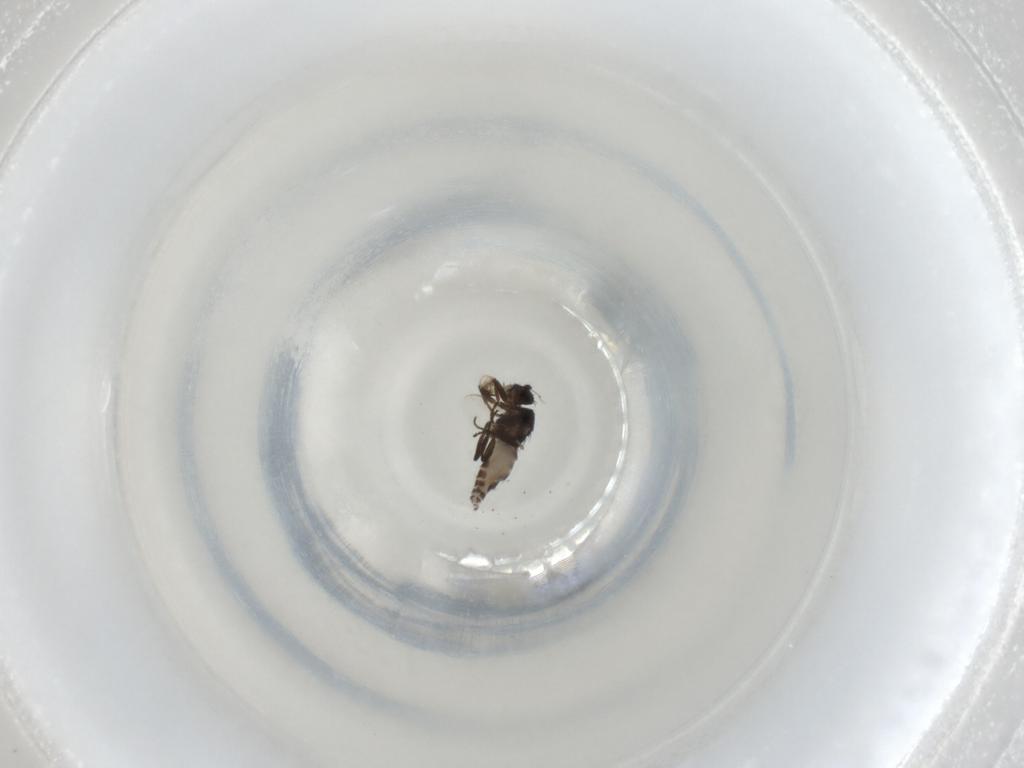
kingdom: Animalia
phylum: Arthropoda
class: Insecta
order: Diptera
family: Sphaeroceridae
